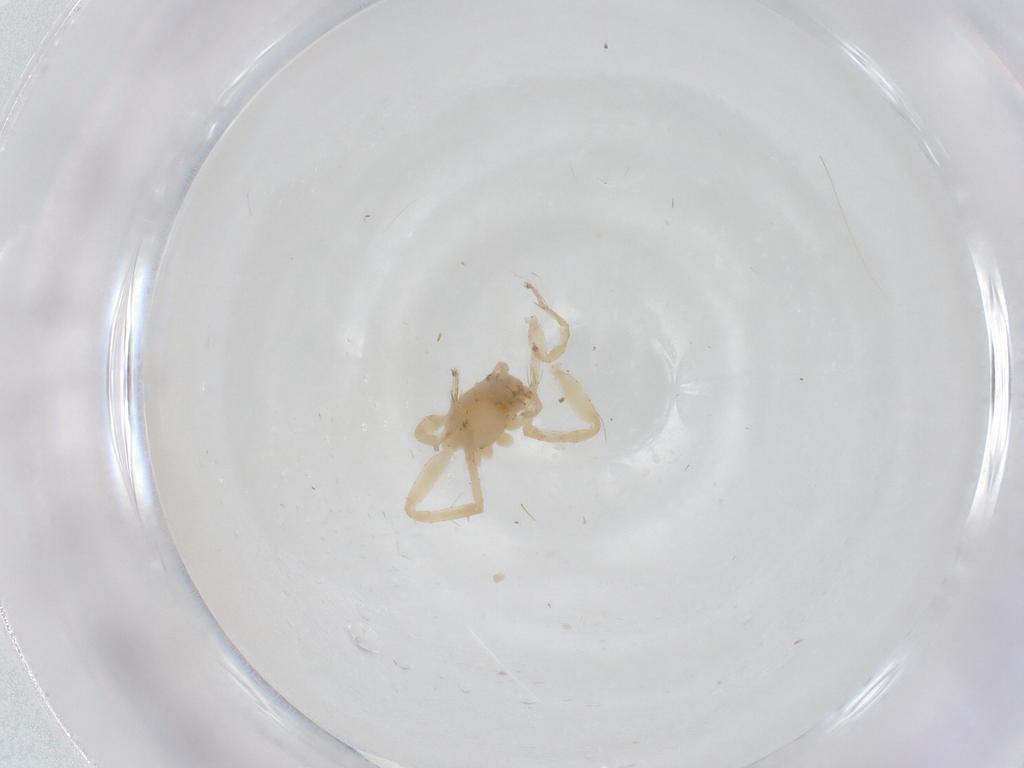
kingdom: Animalia
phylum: Arthropoda
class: Arachnida
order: Araneae
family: Anyphaenidae
